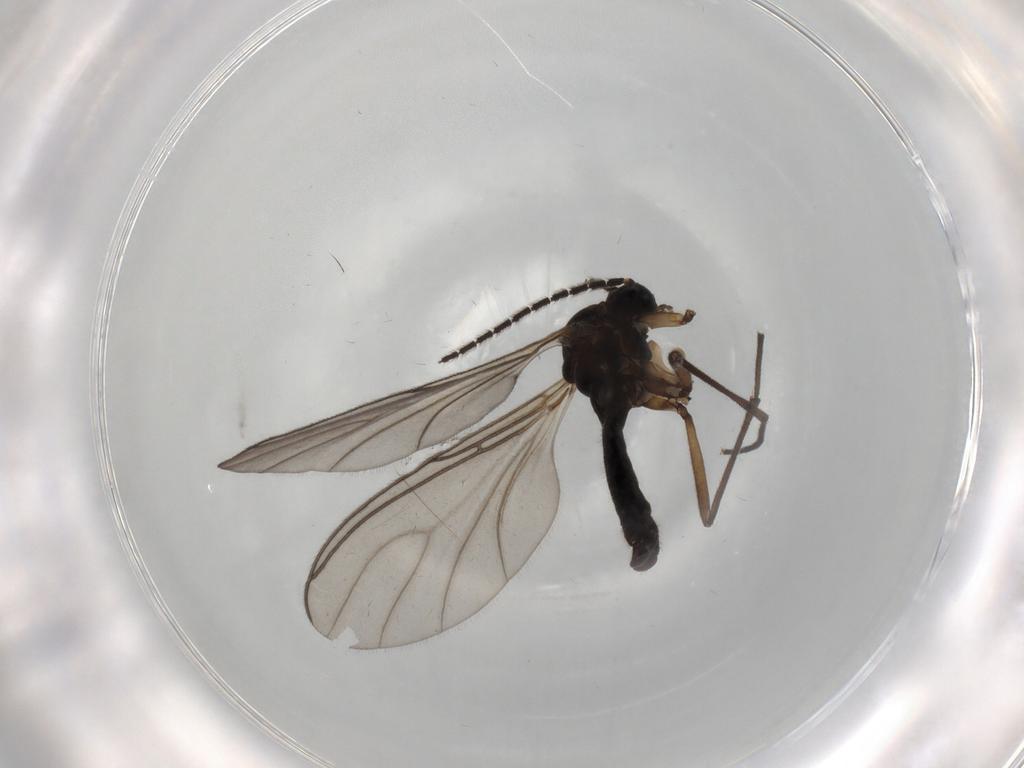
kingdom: Animalia
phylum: Arthropoda
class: Insecta
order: Diptera
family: Sciaridae
